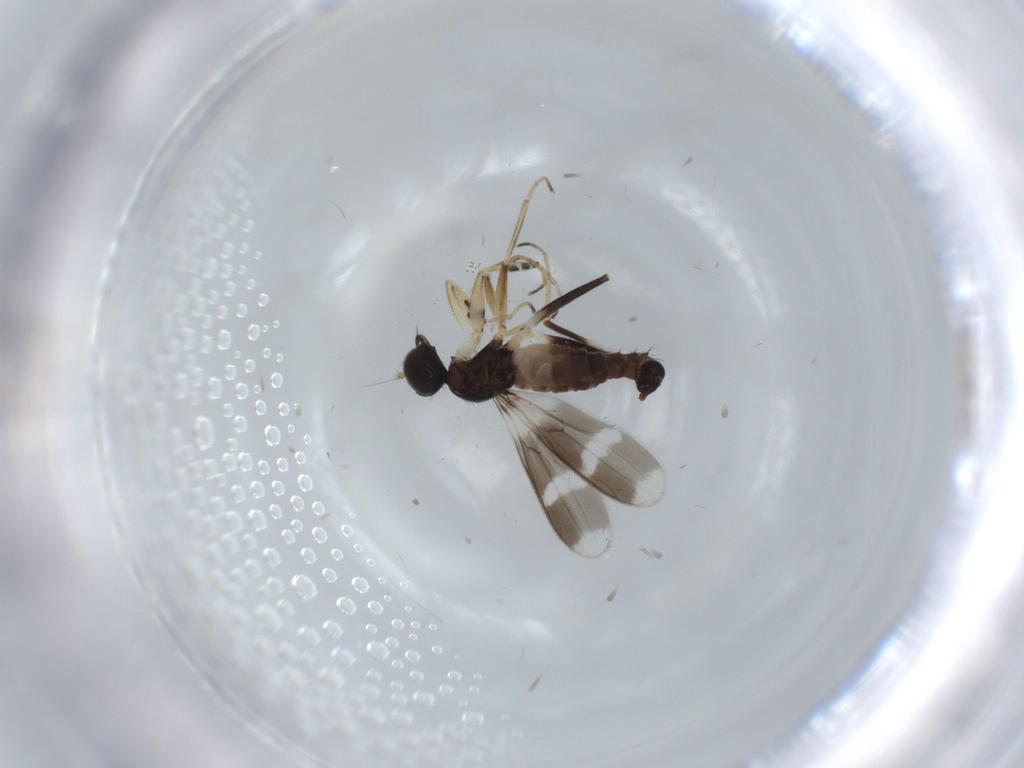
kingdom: Animalia
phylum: Arthropoda
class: Insecta
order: Diptera
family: Hybotidae
